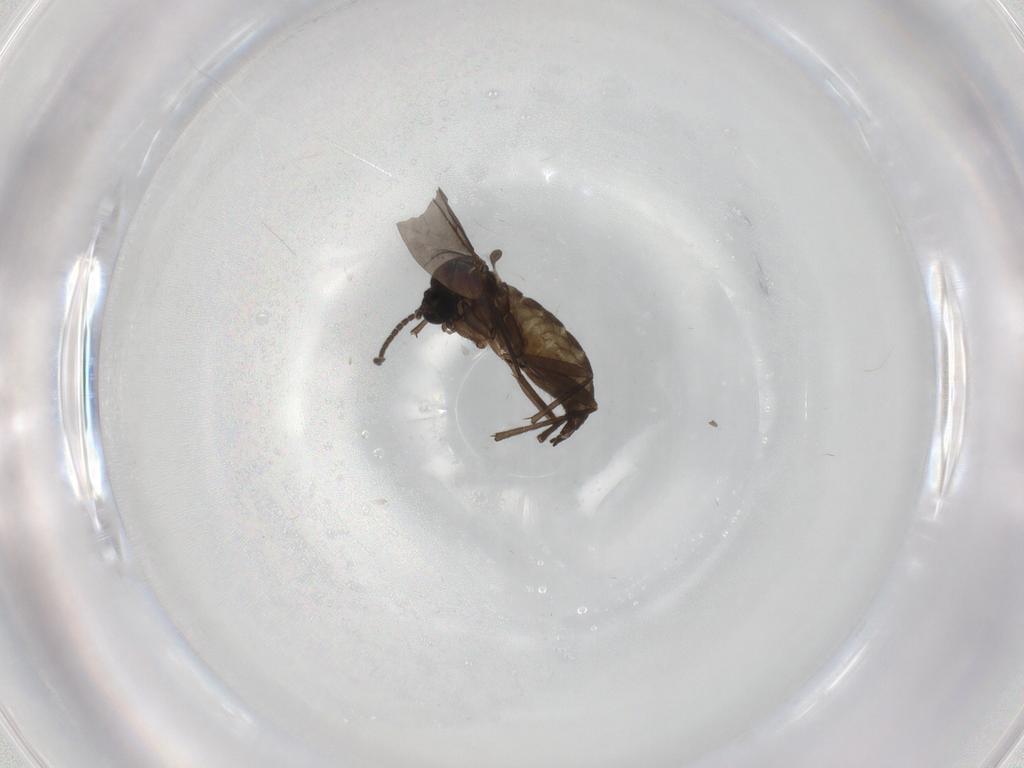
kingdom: Animalia
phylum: Arthropoda
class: Insecta
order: Diptera
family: Sciaridae
